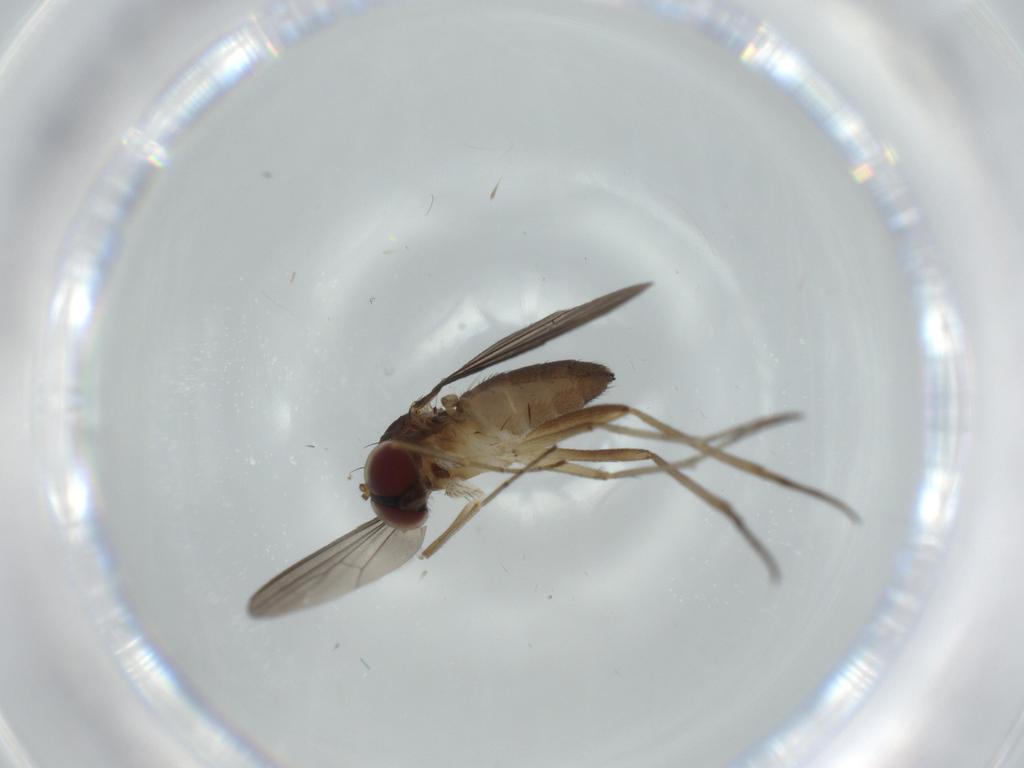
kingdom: Animalia
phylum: Arthropoda
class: Insecta
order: Diptera
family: Dolichopodidae
